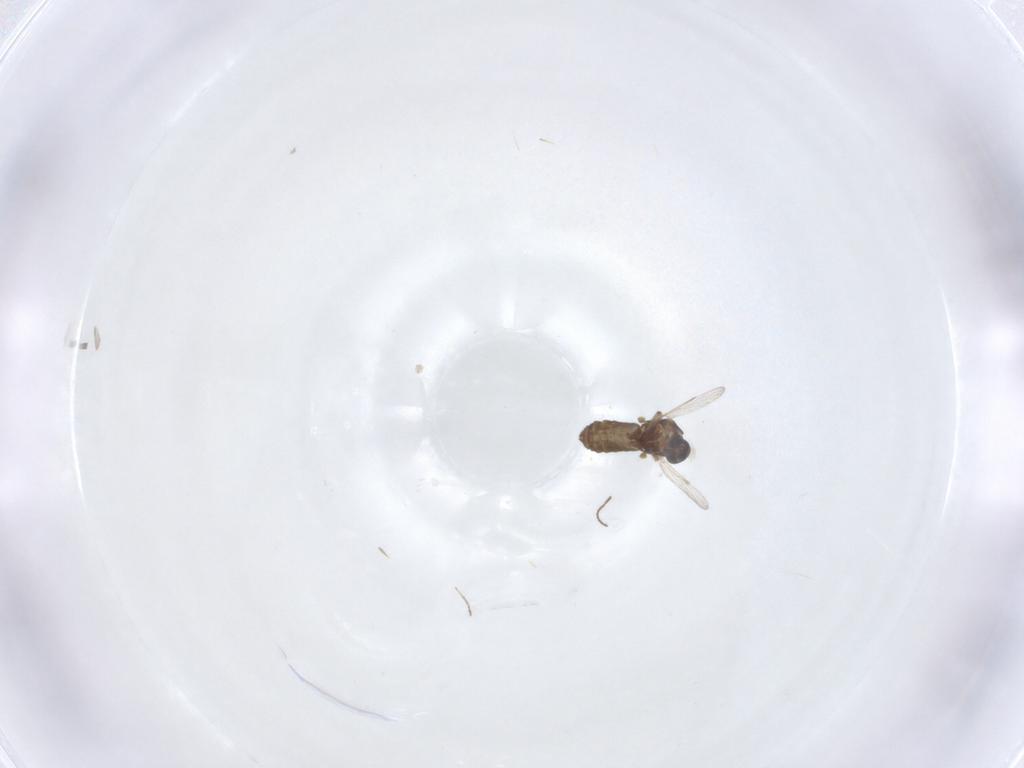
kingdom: Animalia
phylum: Arthropoda
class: Insecta
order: Diptera
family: Ceratopogonidae
